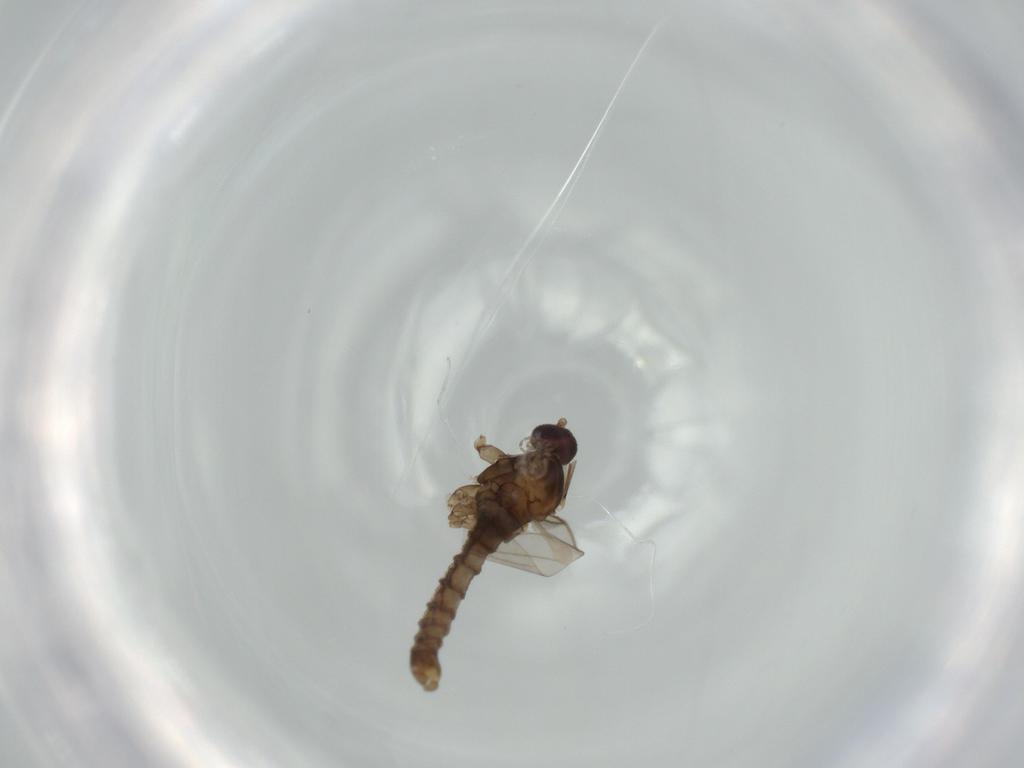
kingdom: Animalia
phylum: Arthropoda
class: Insecta
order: Diptera
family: Cecidomyiidae
